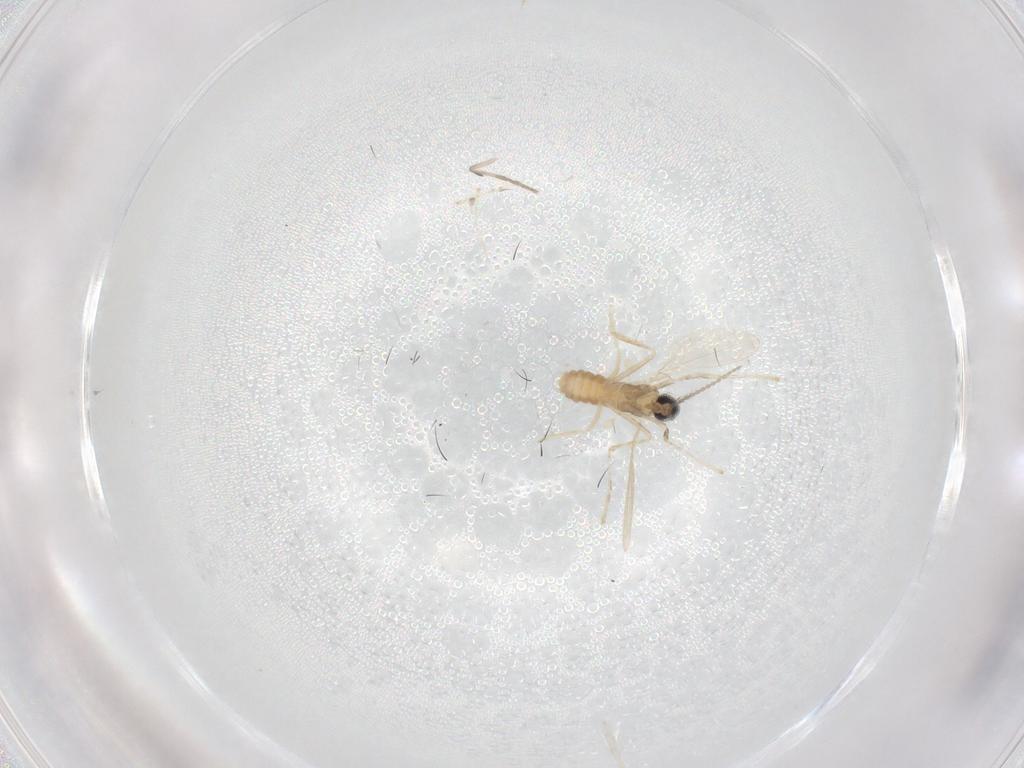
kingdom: Animalia
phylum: Arthropoda
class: Insecta
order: Diptera
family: Cecidomyiidae
